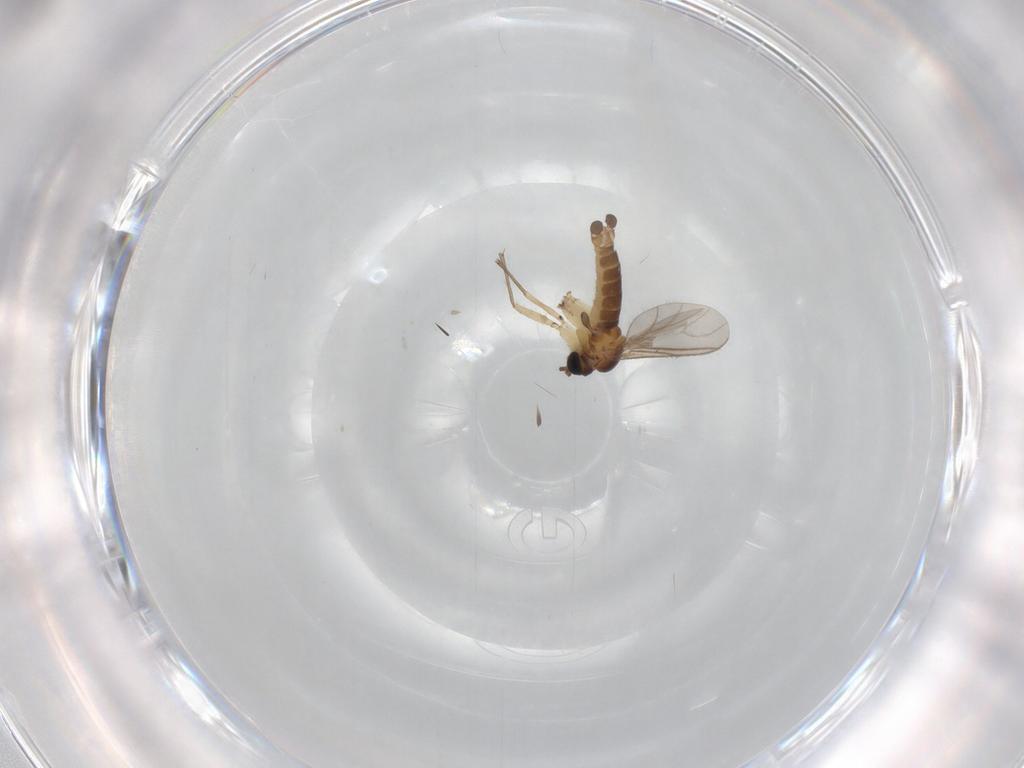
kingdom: Animalia
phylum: Arthropoda
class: Insecta
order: Diptera
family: Sciaridae
